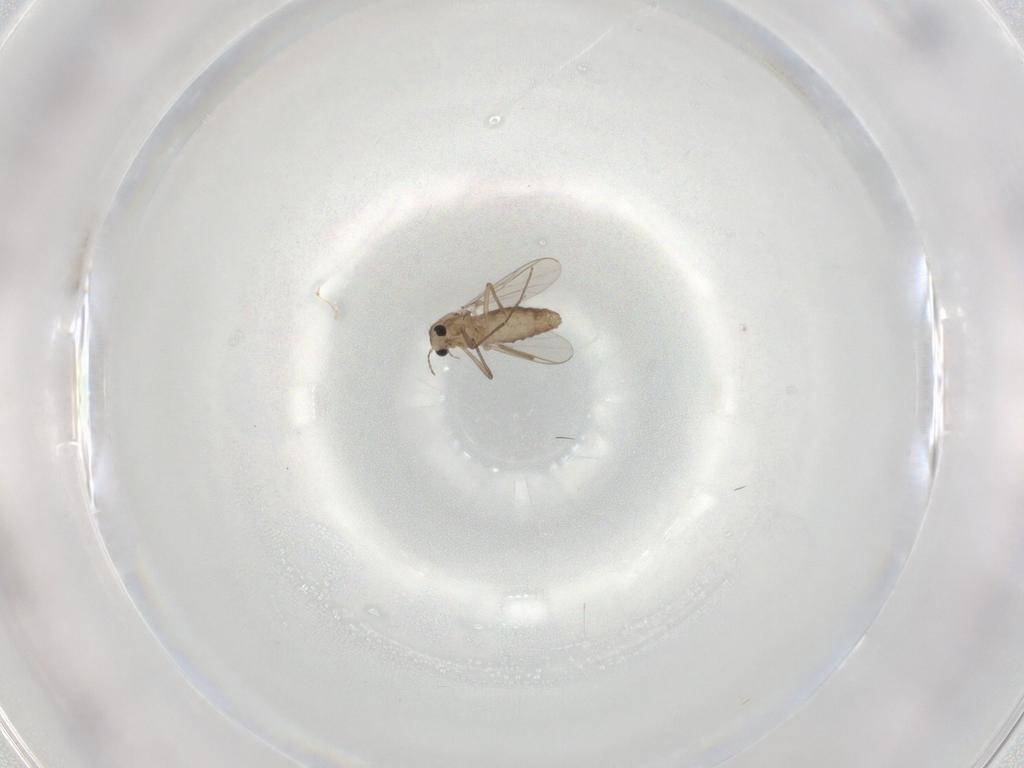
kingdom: Animalia
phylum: Arthropoda
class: Insecta
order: Diptera
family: Chironomidae
